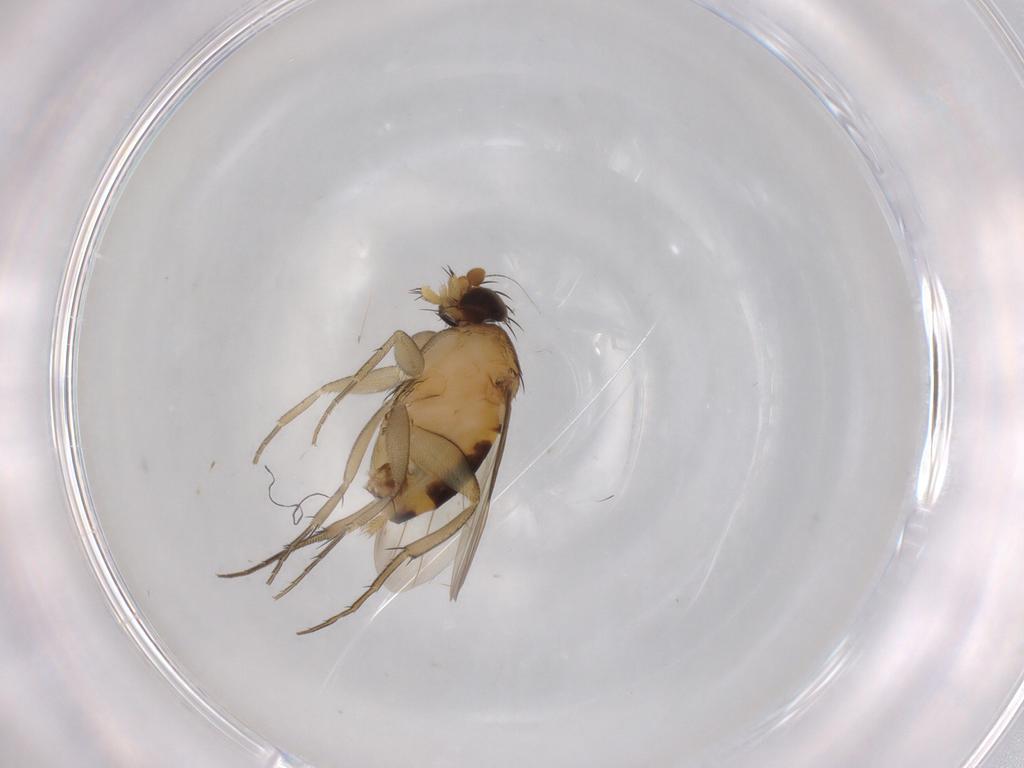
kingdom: Animalia
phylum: Arthropoda
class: Insecta
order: Diptera
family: Phoridae
